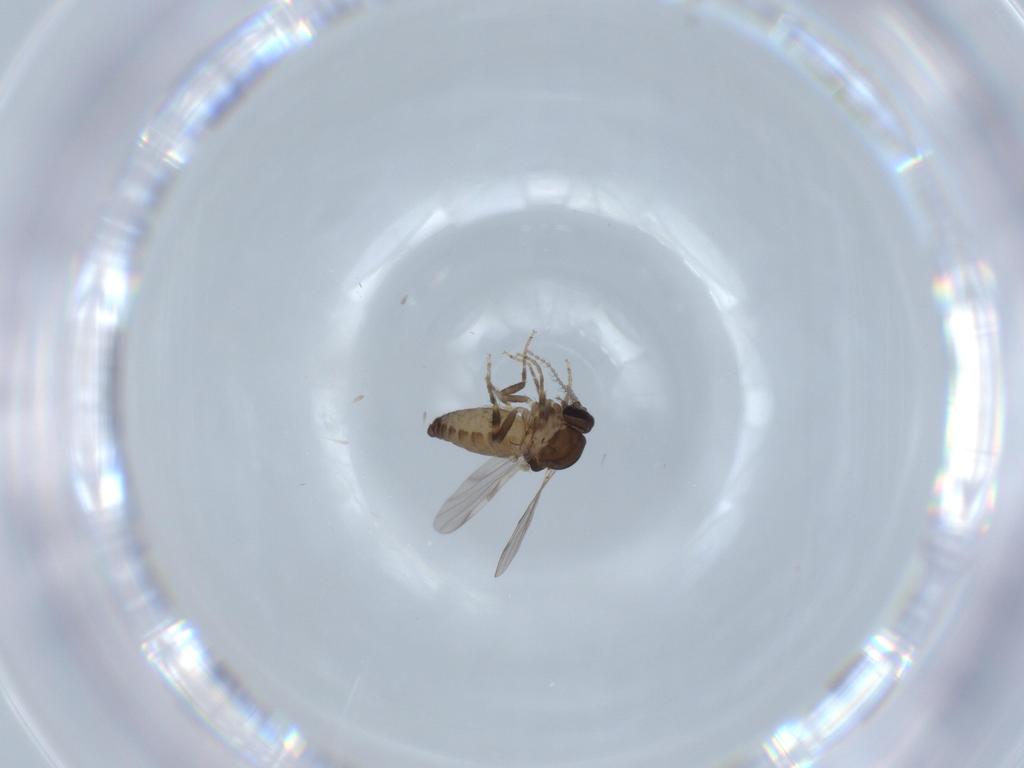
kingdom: Animalia
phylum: Arthropoda
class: Insecta
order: Diptera
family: Ceratopogonidae
